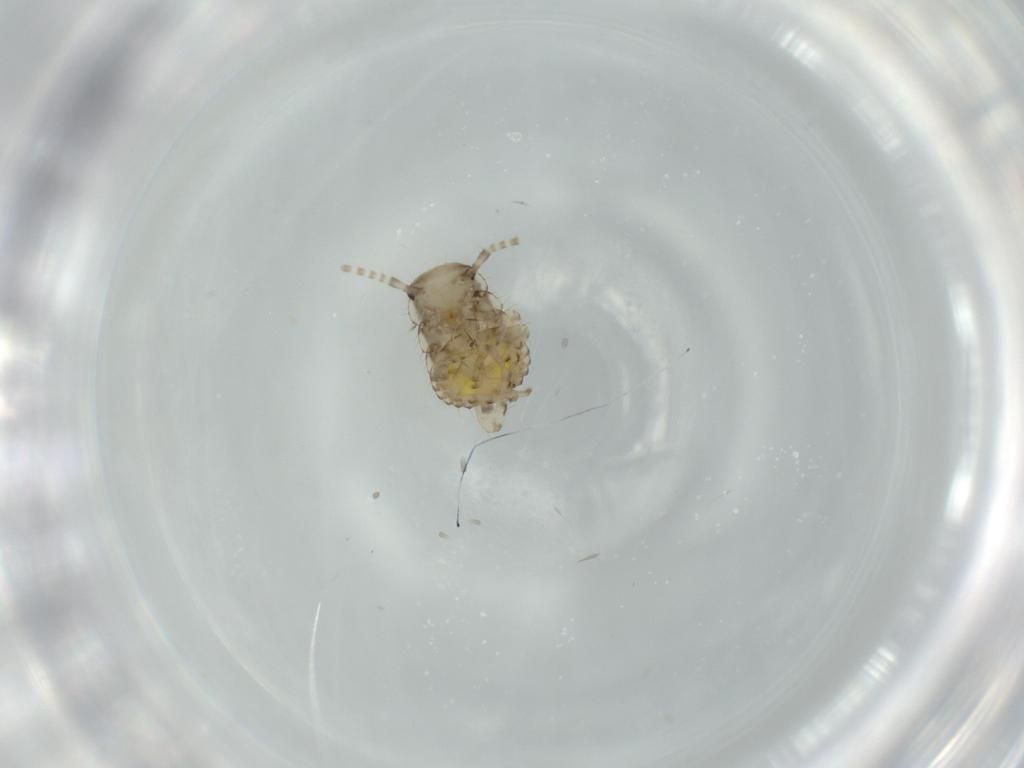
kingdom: Animalia
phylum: Arthropoda
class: Insecta
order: Blattodea
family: Ectobiidae
